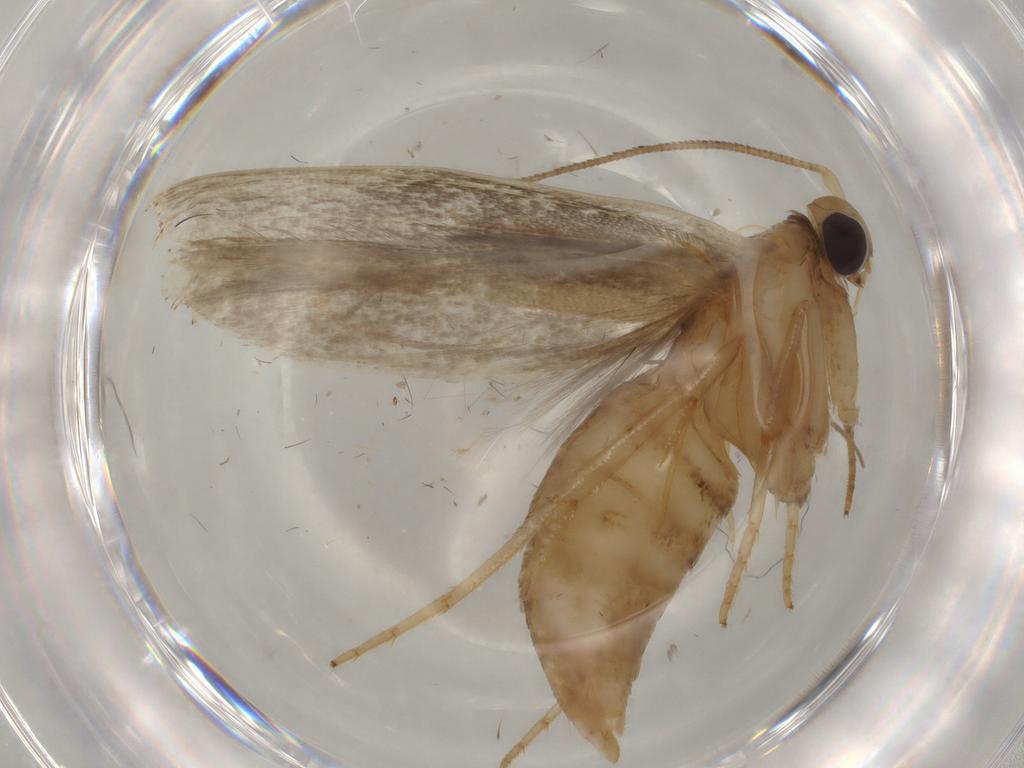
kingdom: Animalia
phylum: Arthropoda
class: Insecta
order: Lepidoptera
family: Yponomeutidae
